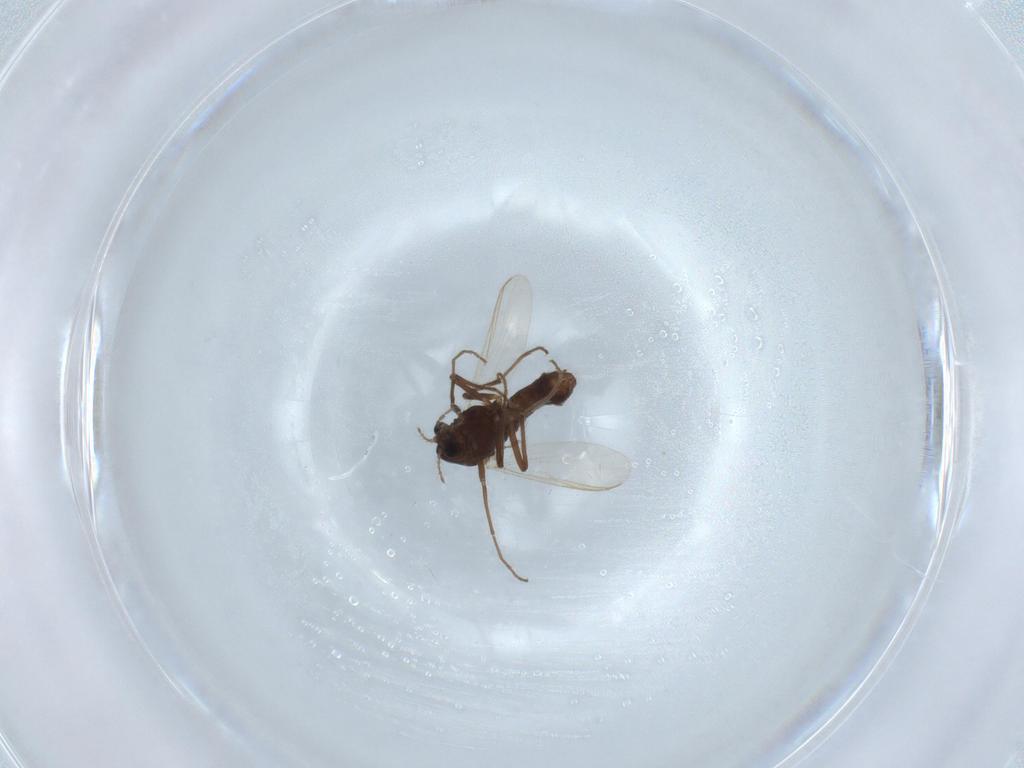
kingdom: Animalia
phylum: Arthropoda
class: Insecta
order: Diptera
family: Chironomidae
